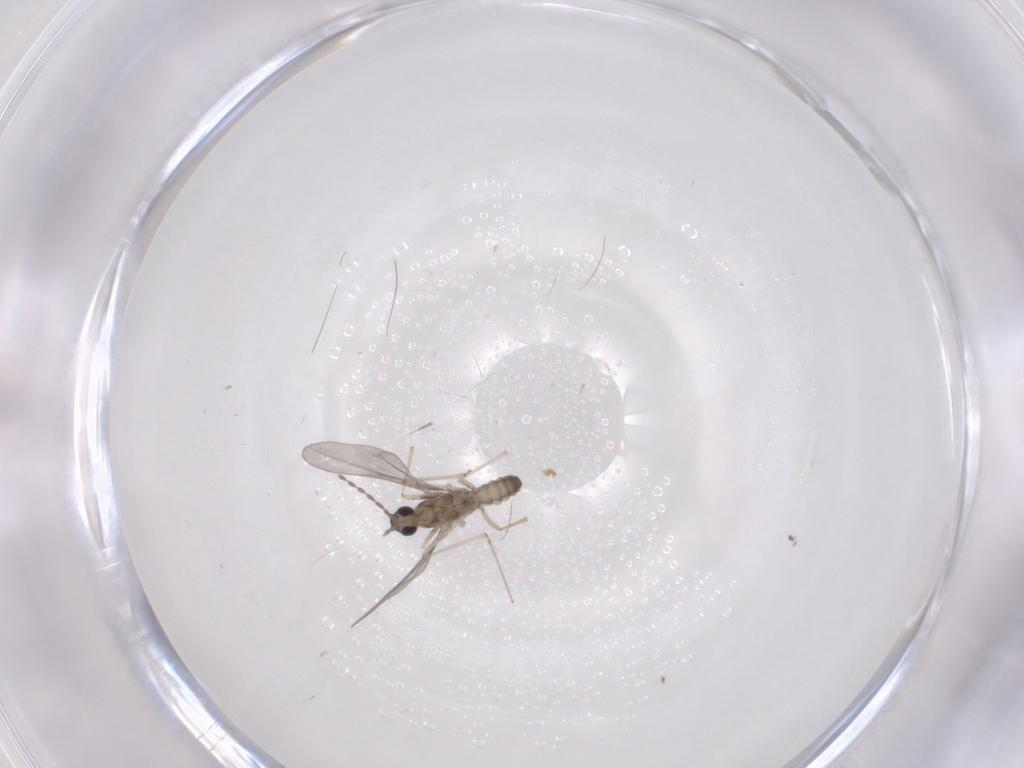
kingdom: Animalia
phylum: Arthropoda
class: Insecta
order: Diptera
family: Cecidomyiidae
